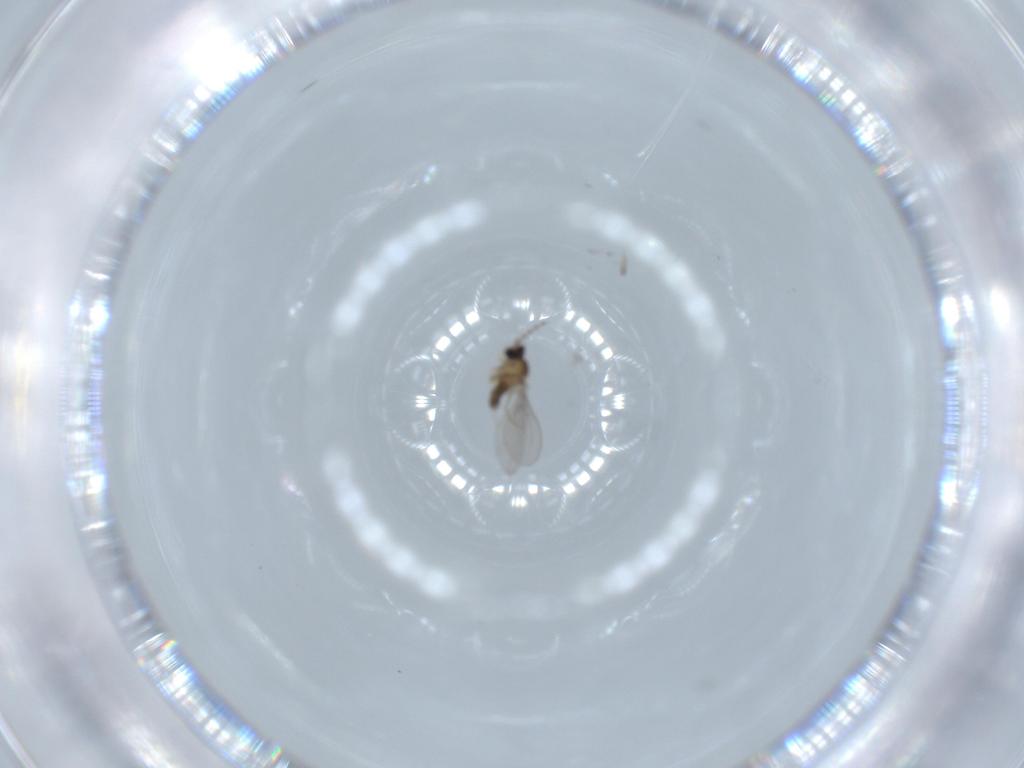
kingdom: Animalia
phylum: Arthropoda
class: Insecta
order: Diptera
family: Cecidomyiidae
